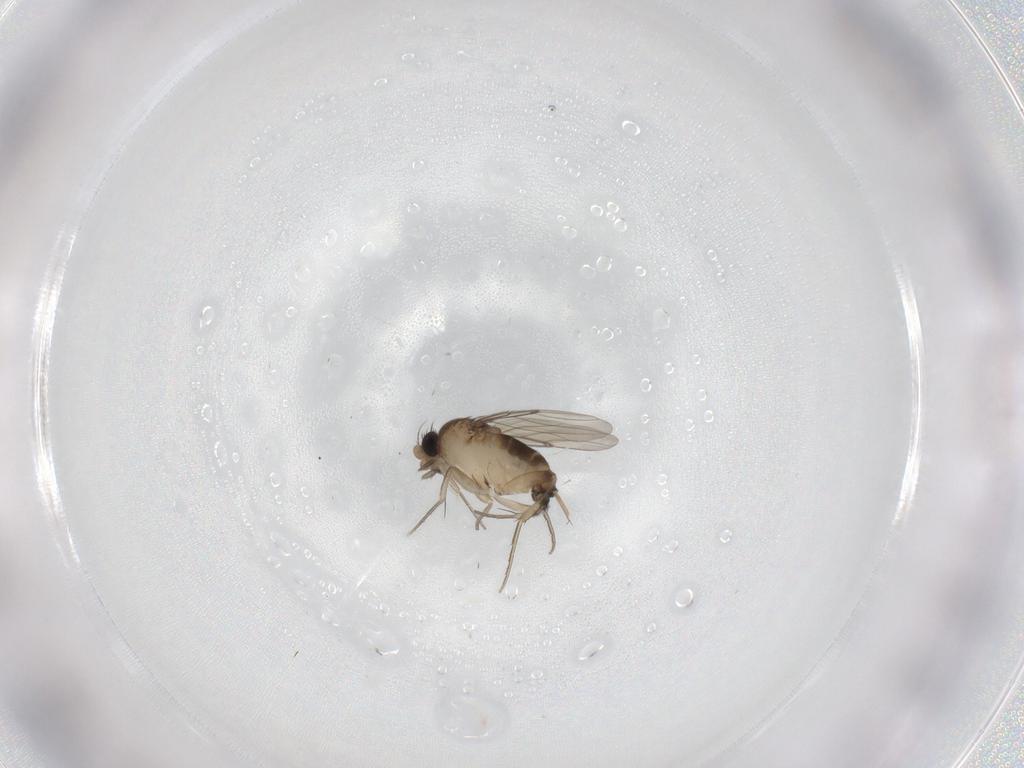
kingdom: Animalia
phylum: Arthropoda
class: Insecta
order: Diptera
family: Phoridae
